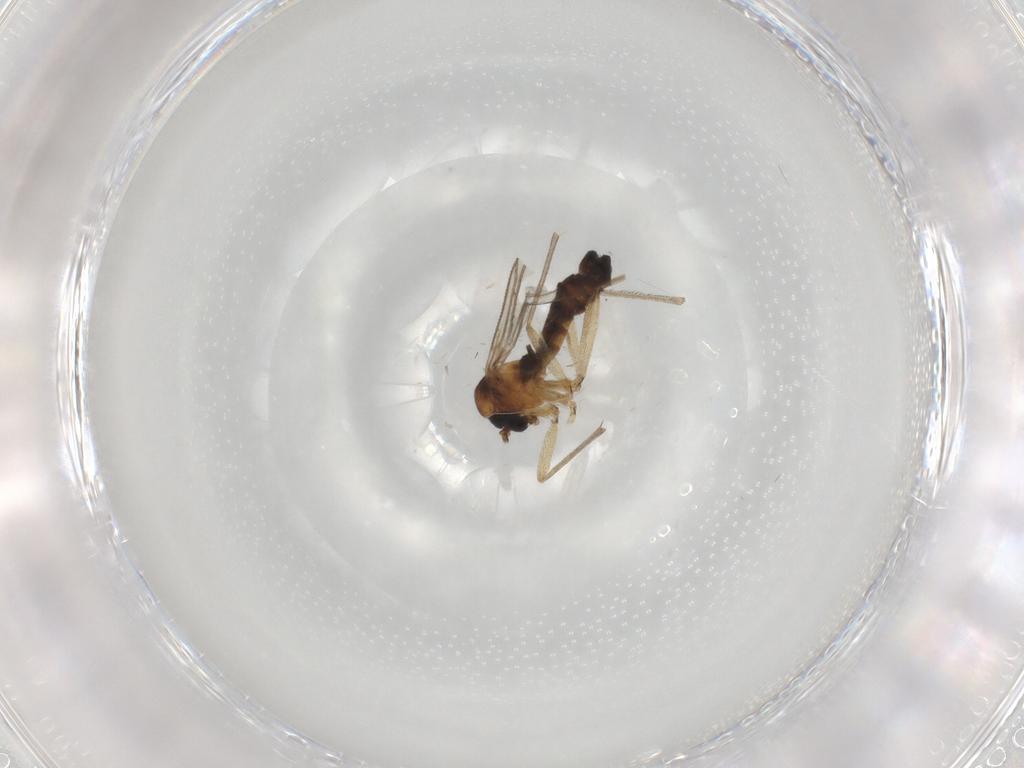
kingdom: Animalia
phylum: Arthropoda
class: Insecta
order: Diptera
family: Sciaridae
